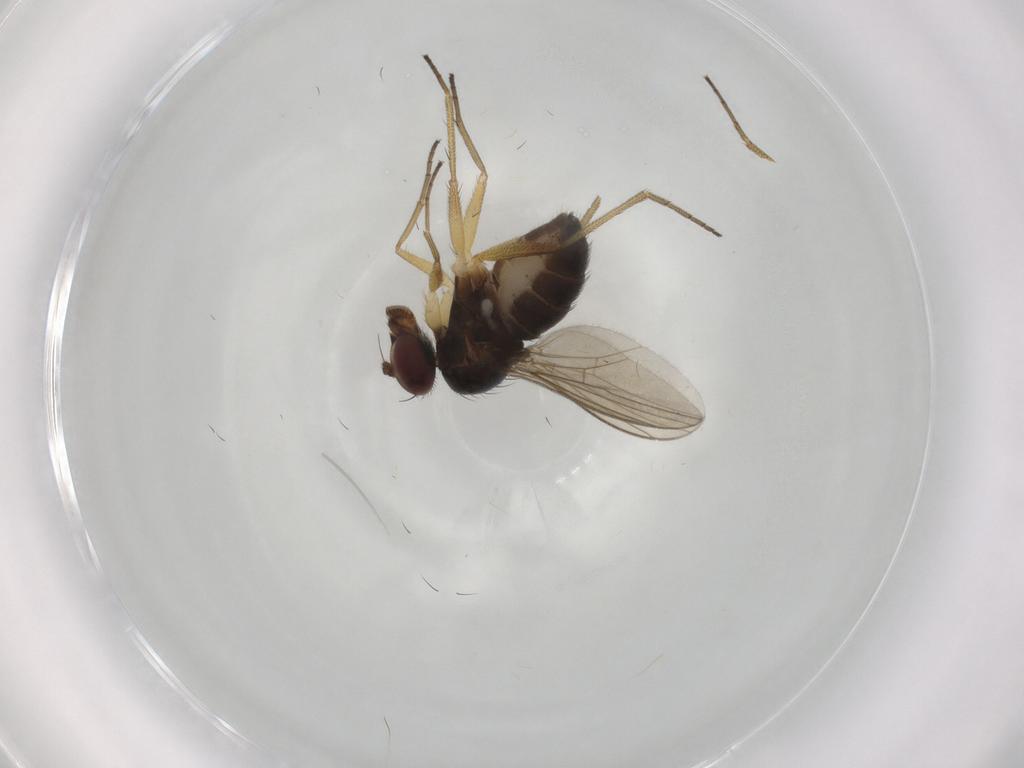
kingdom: Animalia
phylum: Arthropoda
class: Insecta
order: Diptera
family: Dolichopodidae
